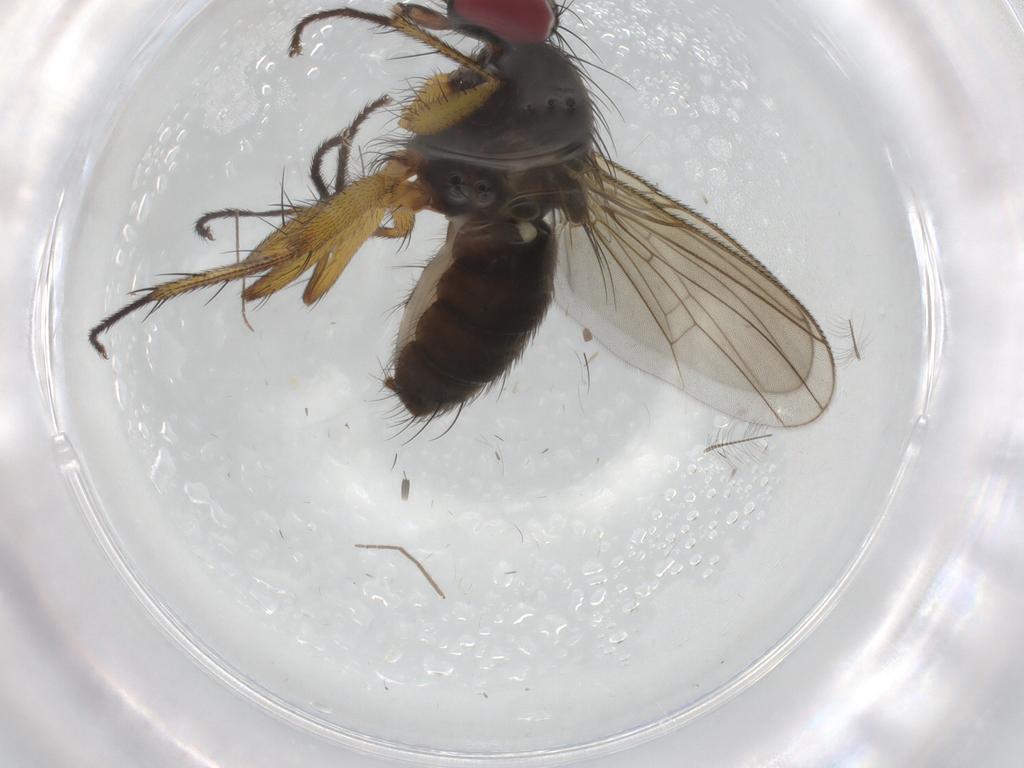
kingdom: Animalia
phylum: Arthropoda
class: Insecta
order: Diptera
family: Muscidae
